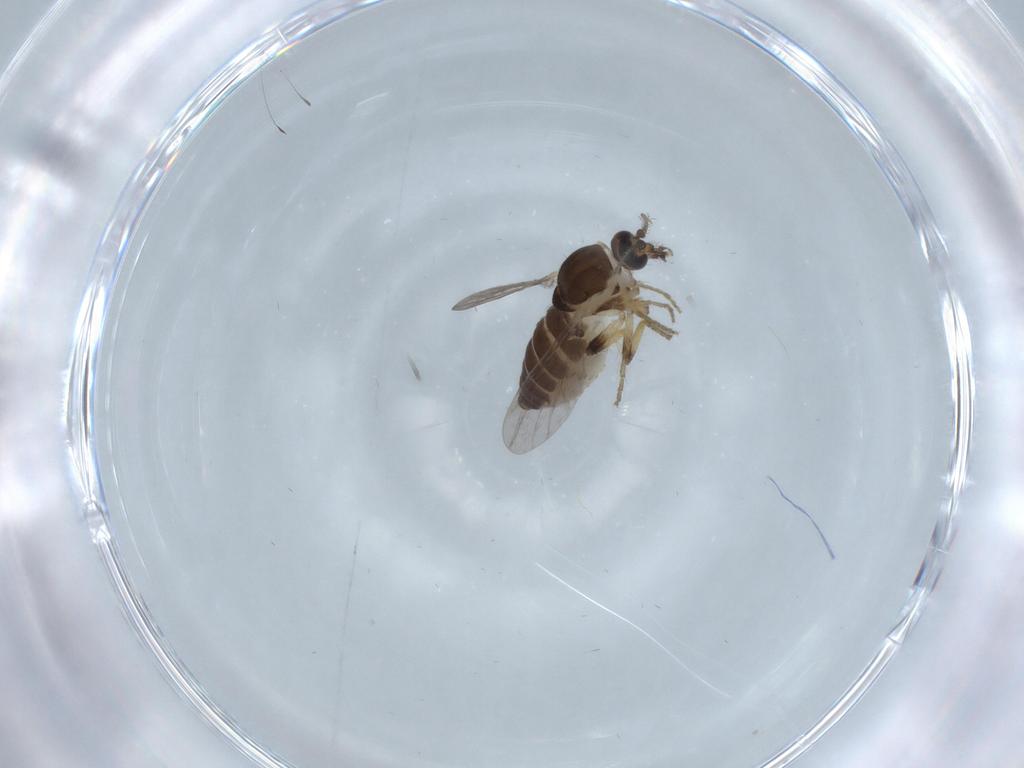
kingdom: Animalia
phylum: Arthropoda
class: Insecta
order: Diptera
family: Ceratopogonidae
